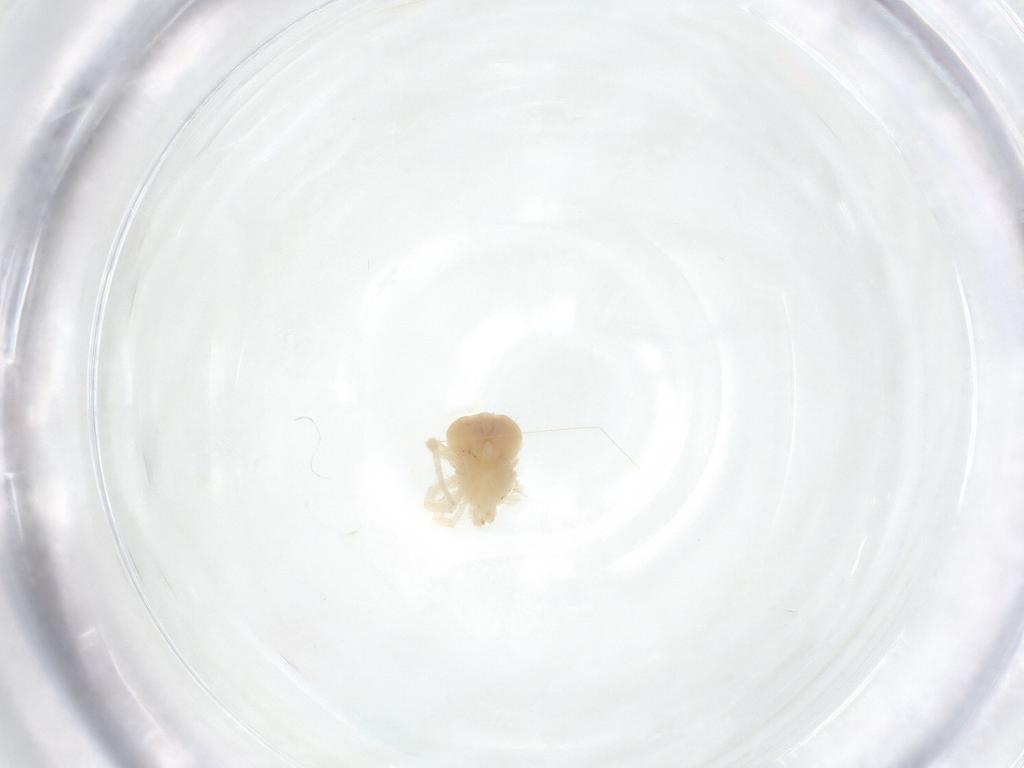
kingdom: Animalia
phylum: Arthropoda
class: Arachnida
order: Trombidiformes
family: Anystidae
